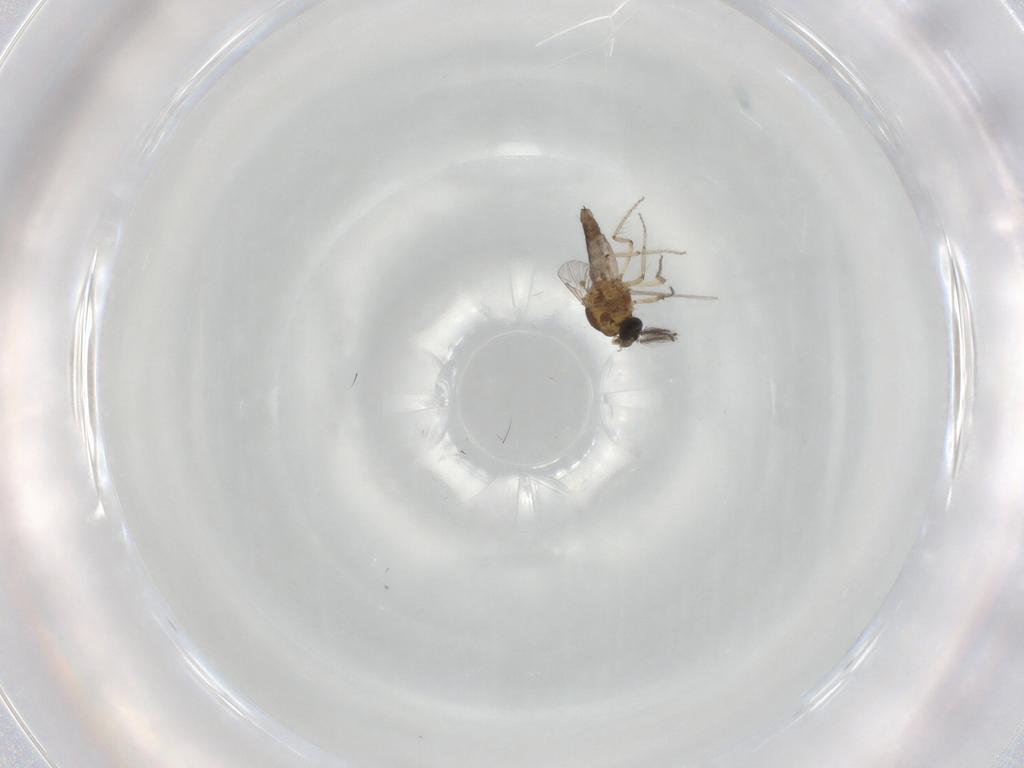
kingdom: Animalia
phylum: Arthropoda
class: Insecta
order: Diptera
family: Ceratopogonidae
